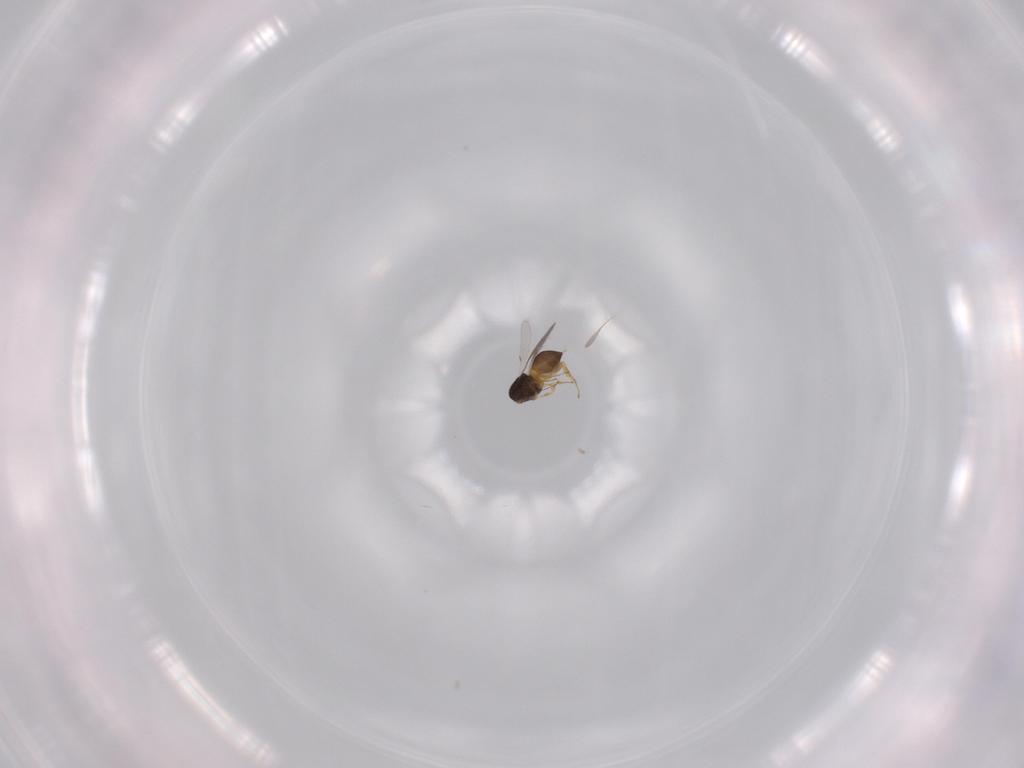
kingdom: Animalia
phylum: Arthropoda
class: Insecta
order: Hymenoptera
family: Scelionidae
